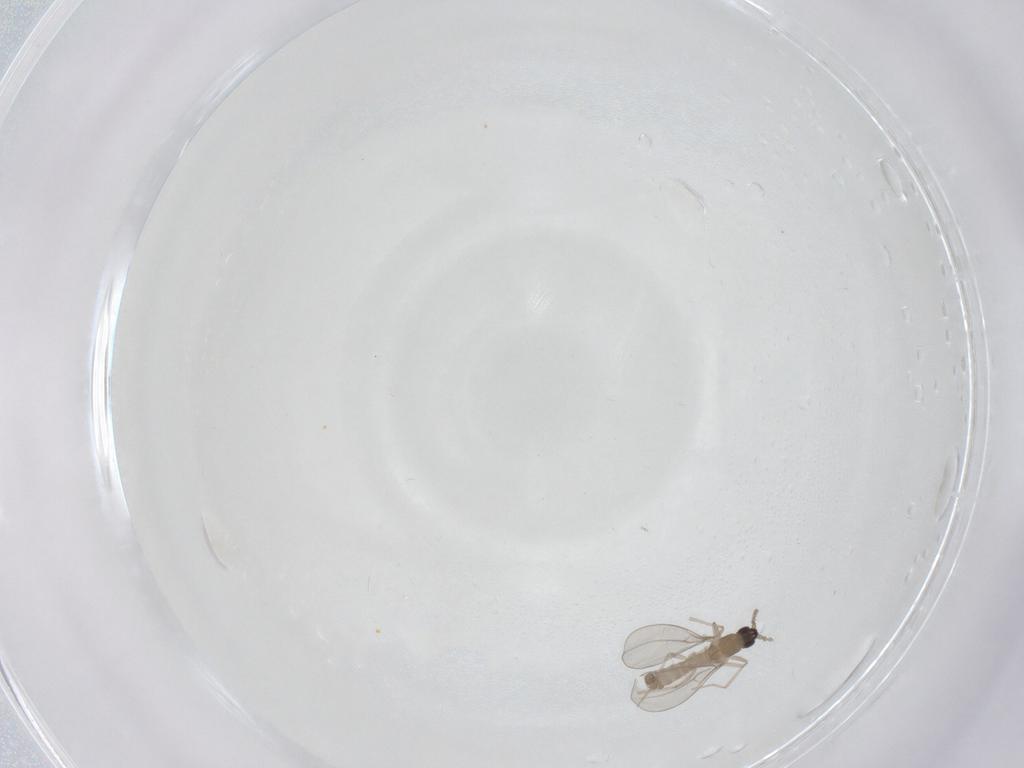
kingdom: Animalia
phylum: Arthropoda
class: Insecta
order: Diptera
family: Cecidomyiidae
